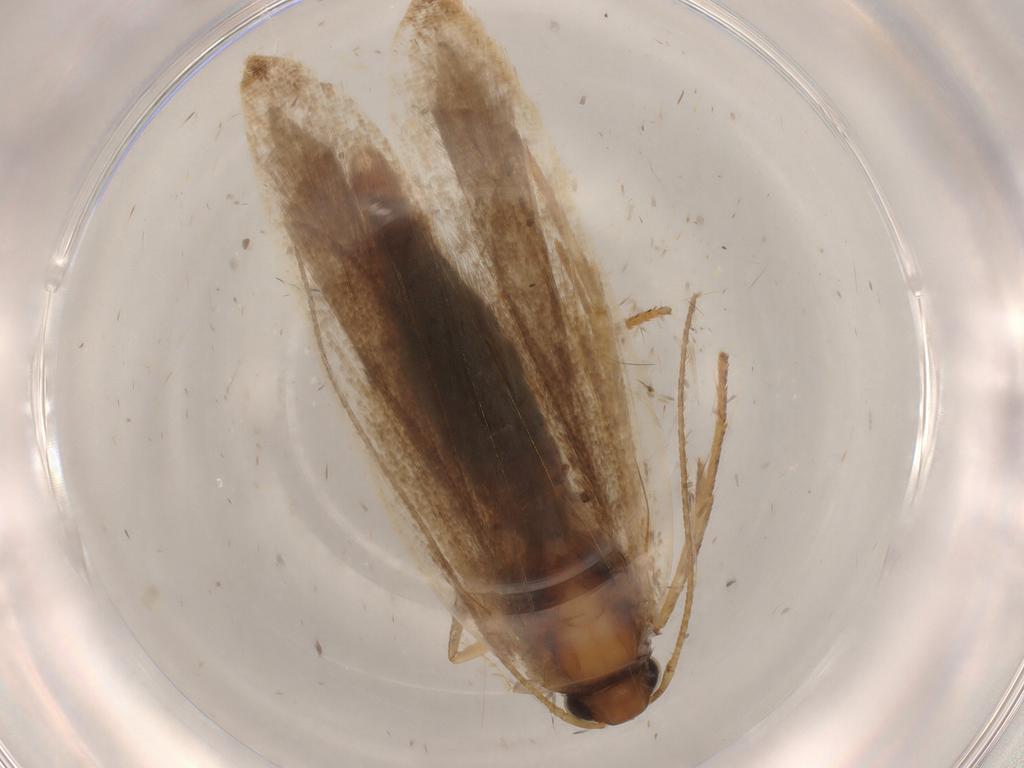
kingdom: Animalia
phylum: Arthropoda
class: Insecta
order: Lepidoptera
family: Gelechiidae
